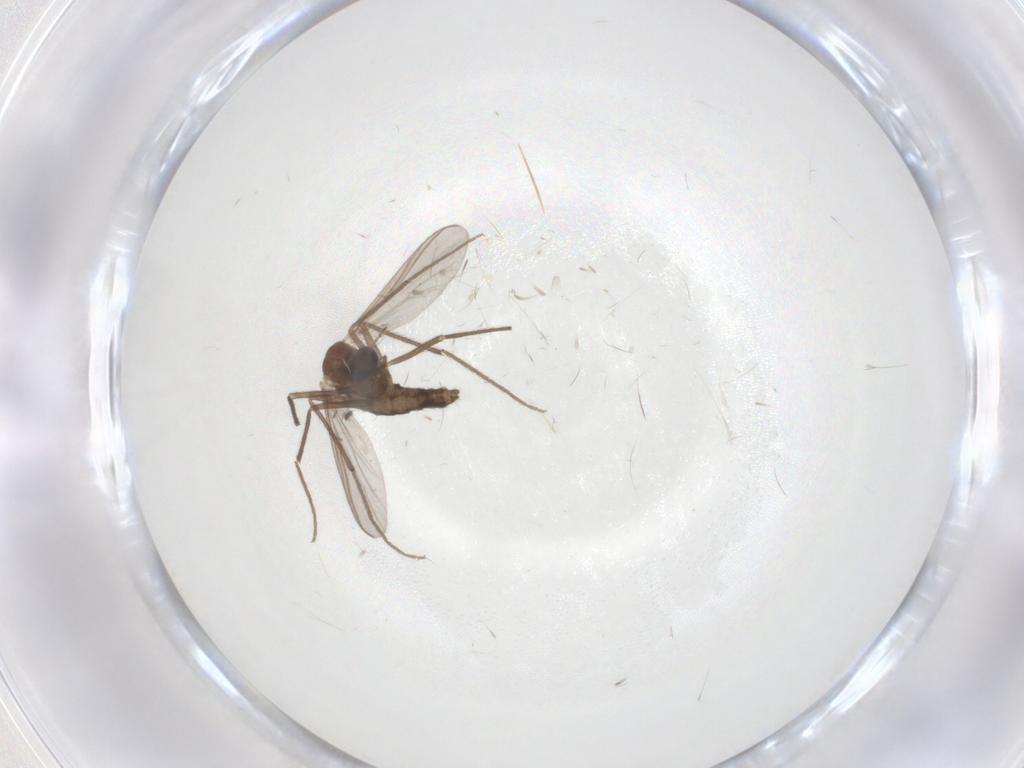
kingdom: Animalia
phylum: Arthropoda
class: Insecta
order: Diptera
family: Chironomidae
